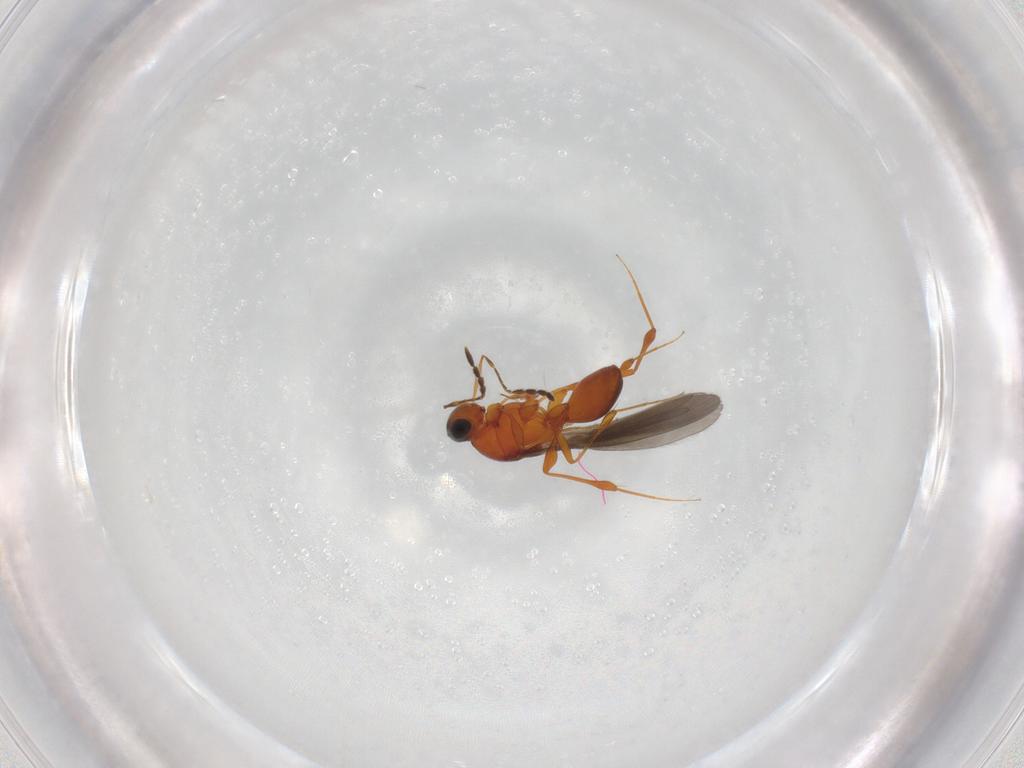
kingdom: Animalia
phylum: Arthropoda
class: Insecta
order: Hymenoptera
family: Platygastridae
